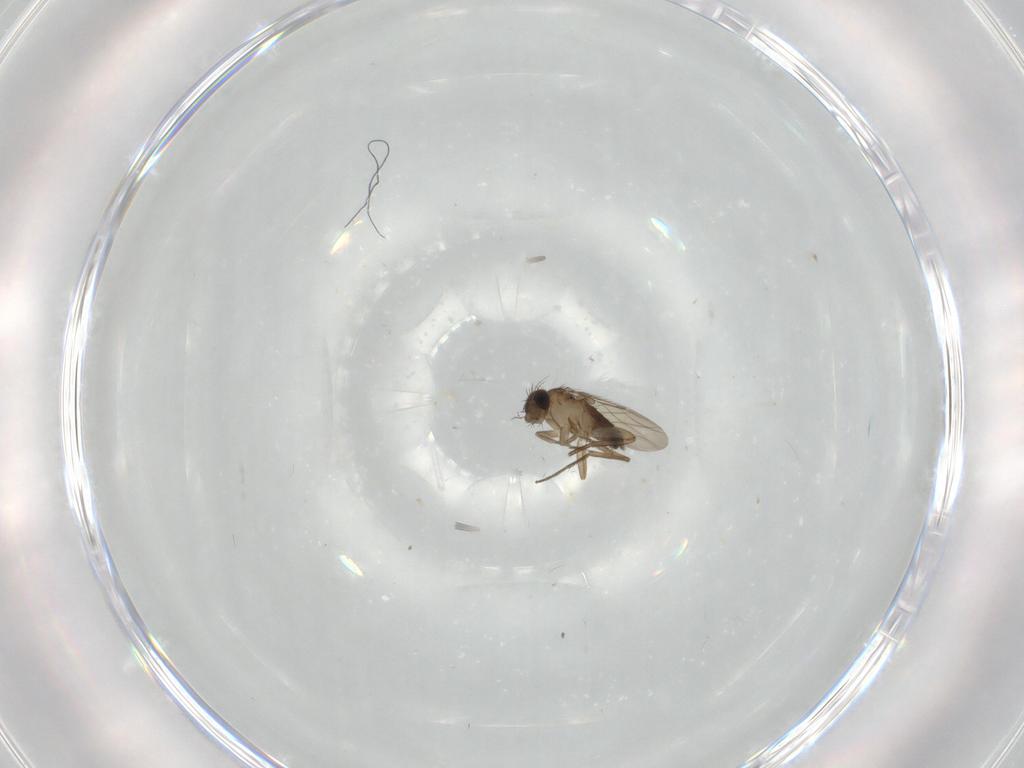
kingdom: Animalia
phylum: Arthropoda
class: Insecta
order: Diptera
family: Phoridae
